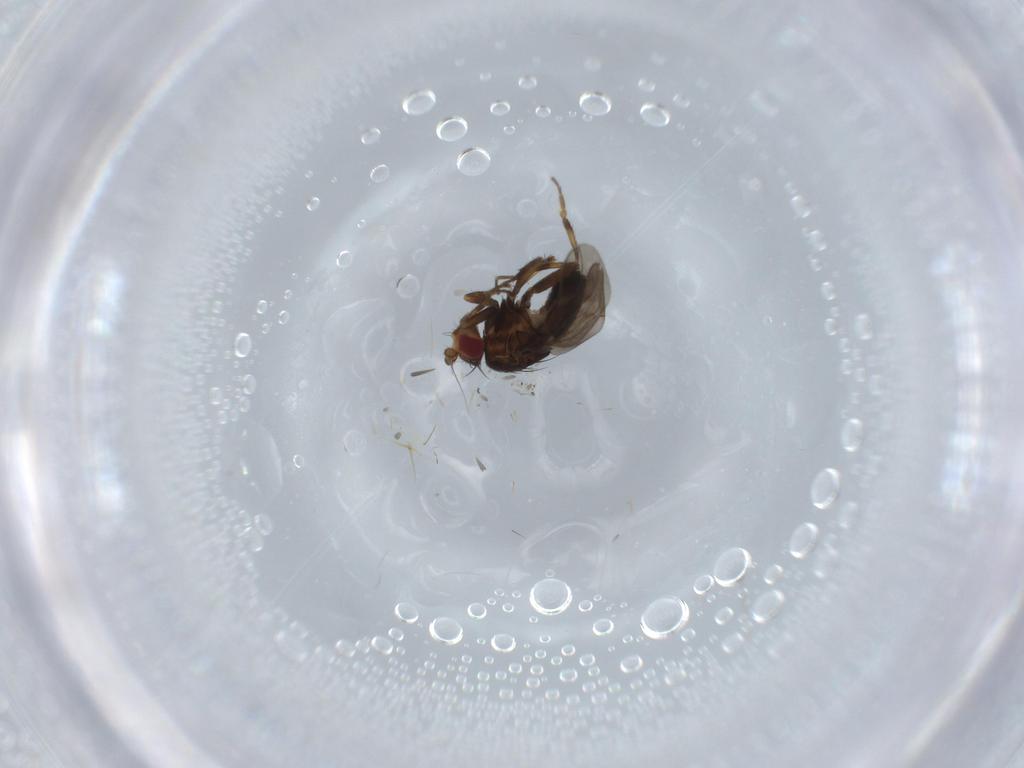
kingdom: Animalia
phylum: Arthropoda
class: Insecta
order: Diptera
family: Sphaeroceridae
